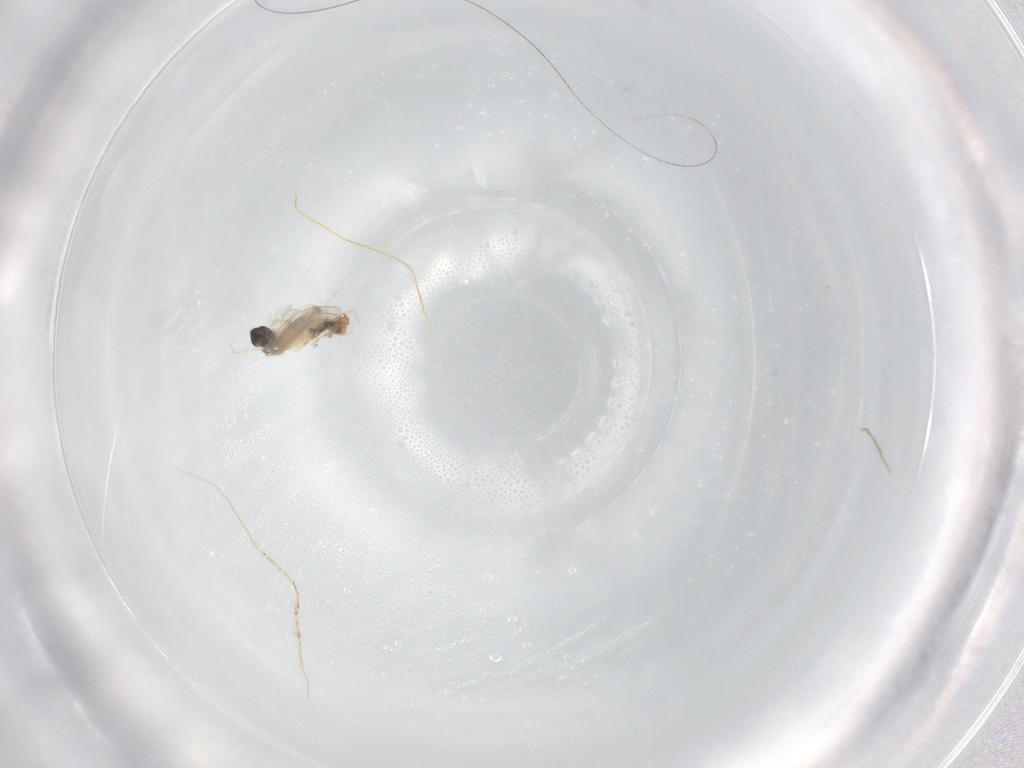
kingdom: Animalia
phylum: Arthropoda
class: Insecta
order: Diptera
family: Cecidomyiidae
